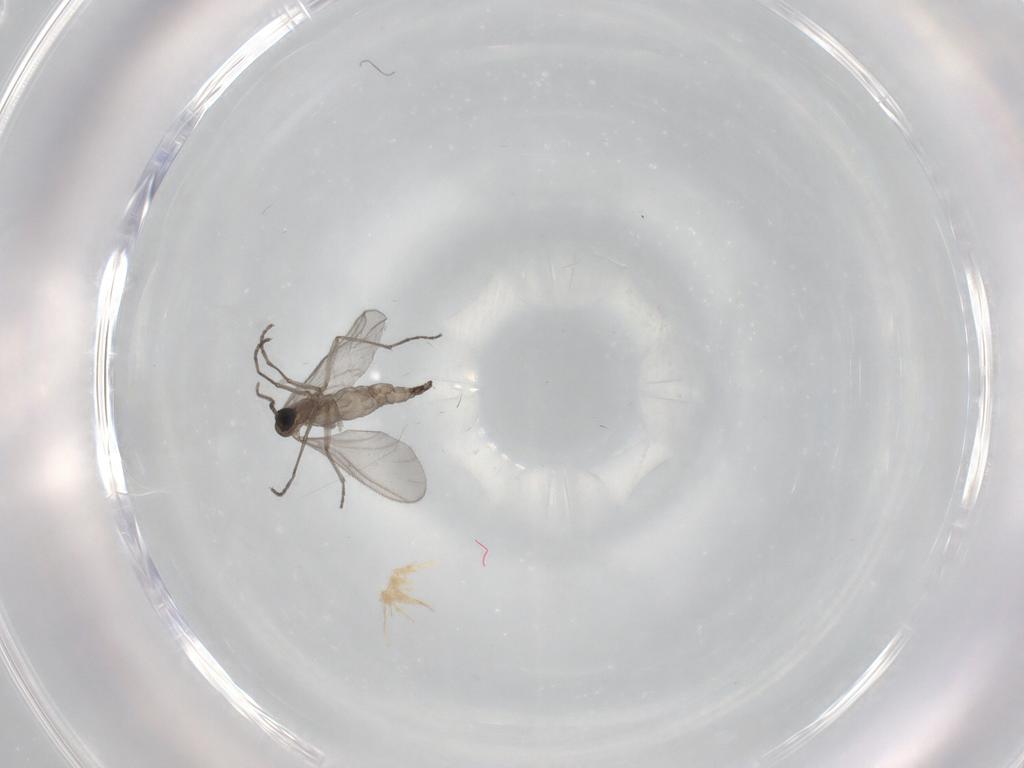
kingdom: Animalia
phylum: Arthropoda
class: Insecta
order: Diptera
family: Sciaridae
